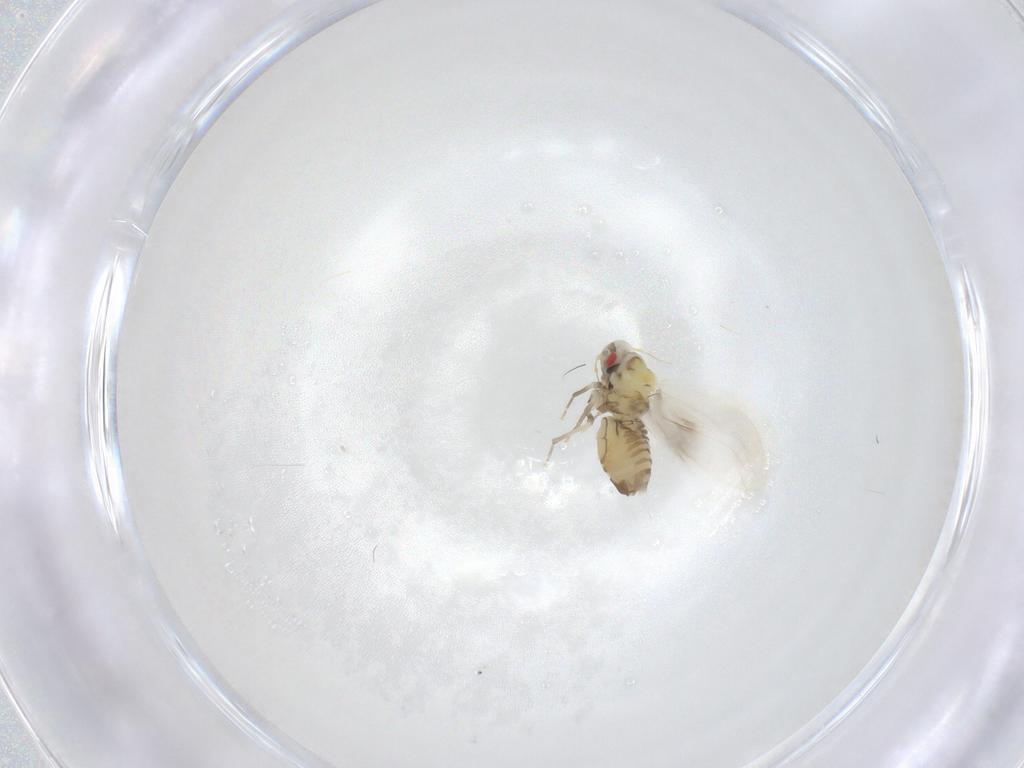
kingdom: Animalia
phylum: Arthropoda
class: Insecta
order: Hemiptera
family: Aleyrodidae
